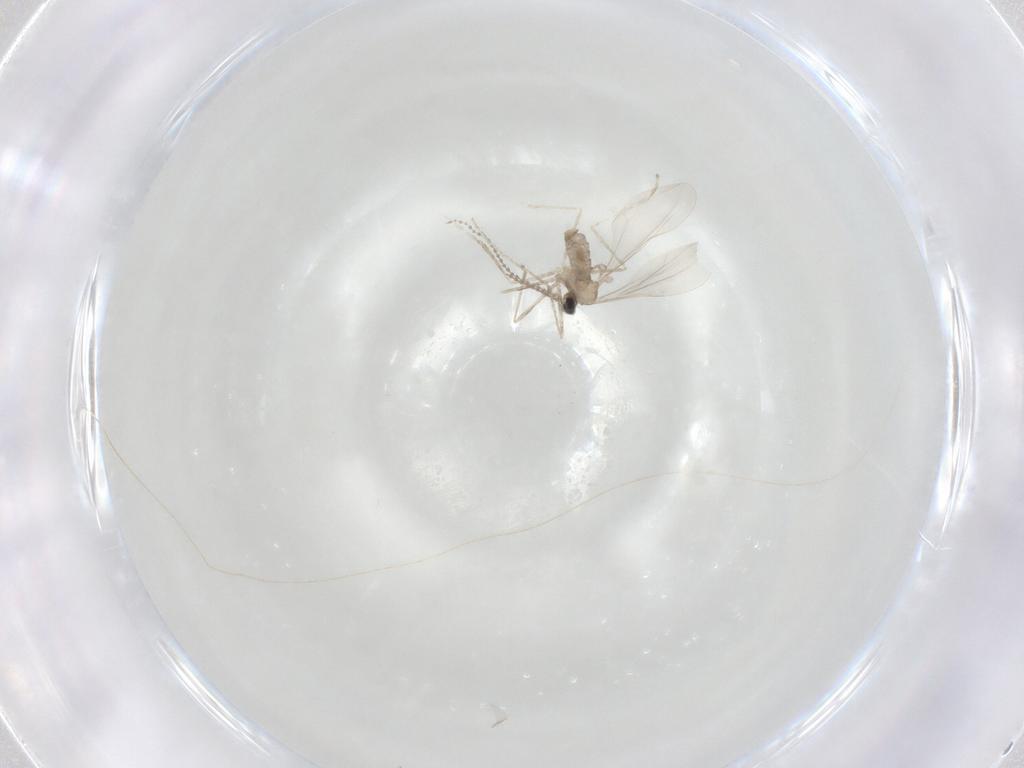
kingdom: Animalia
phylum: Arthropoda
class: Insecta
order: Diptera
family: Cecidomyiidae
